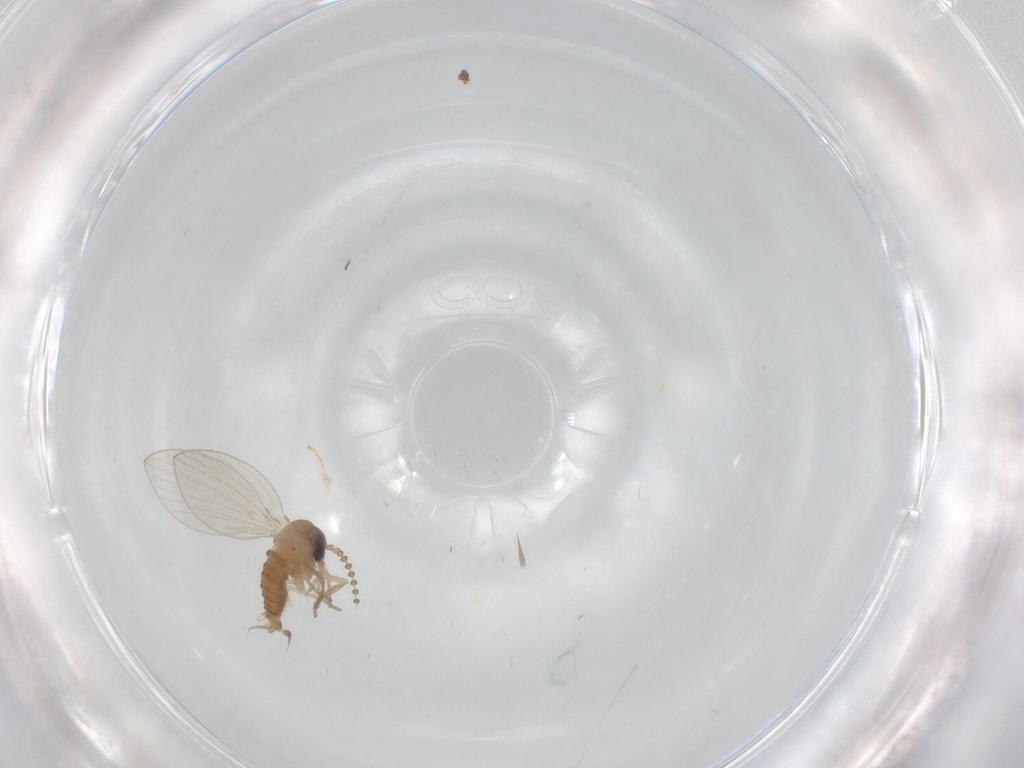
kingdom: Animalia
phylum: Arthropoda
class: Insecta
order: Diptera
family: Psychodidae
